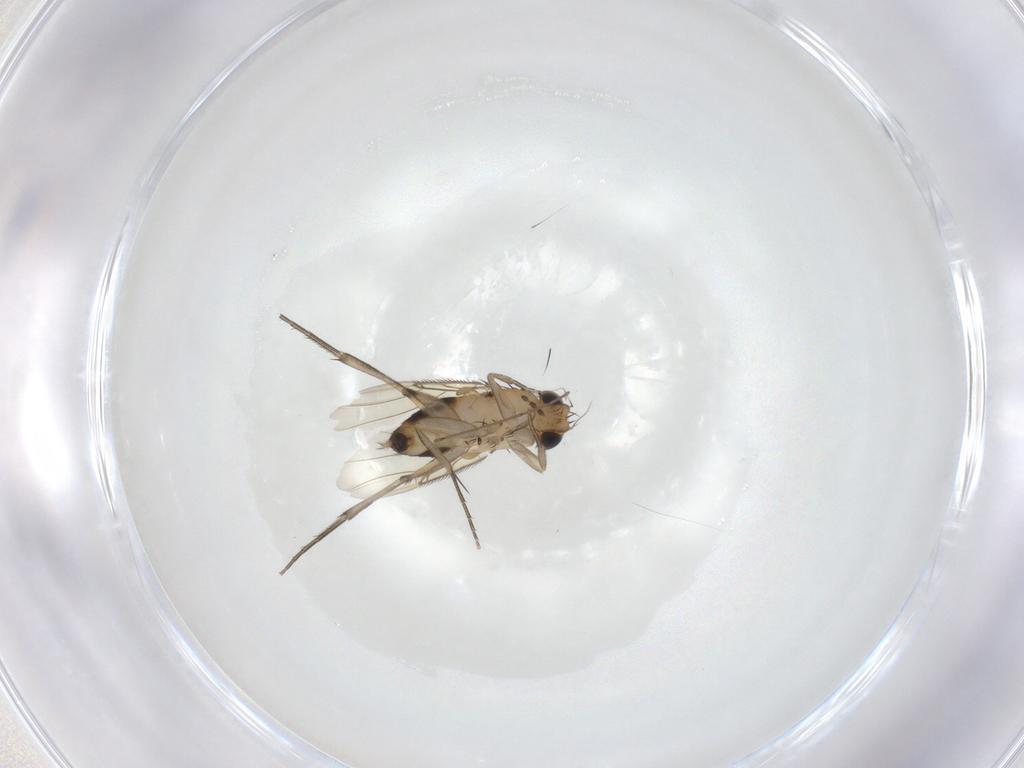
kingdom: Animalia
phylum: Arthropoda
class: Insecta
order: Diptera
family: Phoridae
